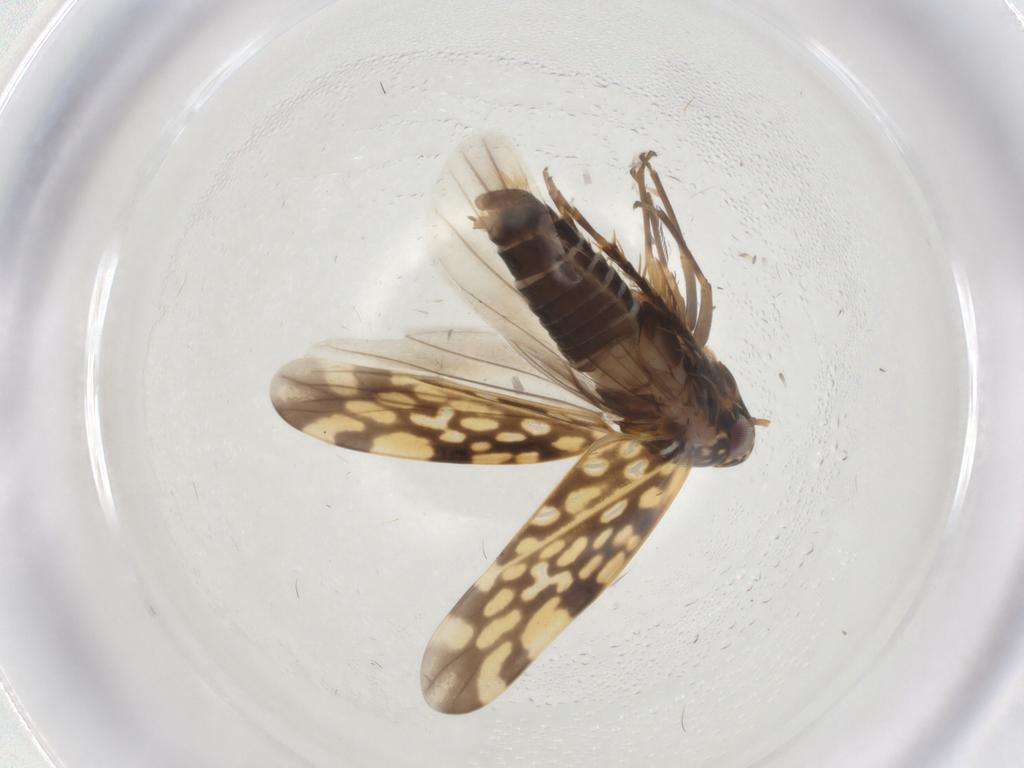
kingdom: Animalia
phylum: Arthropoda
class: Insecta
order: Hemiptera
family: Cicadellidae
